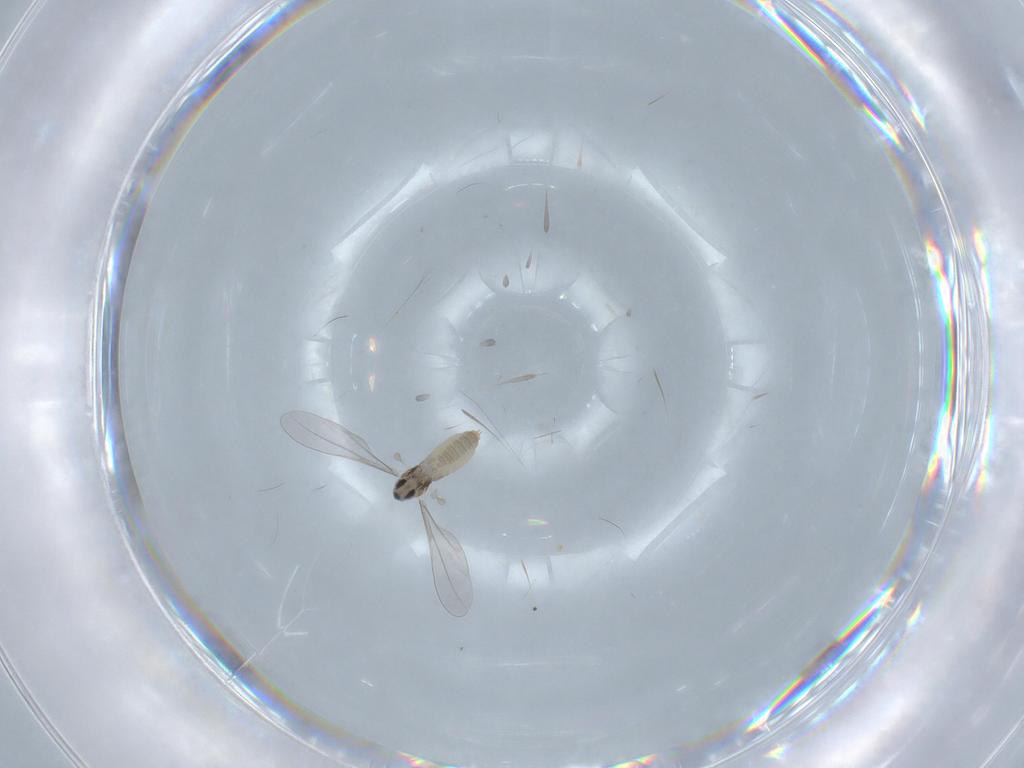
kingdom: Animalia
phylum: Arthropoda
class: Insecta
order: Diptera
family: Cecidomyiidae
